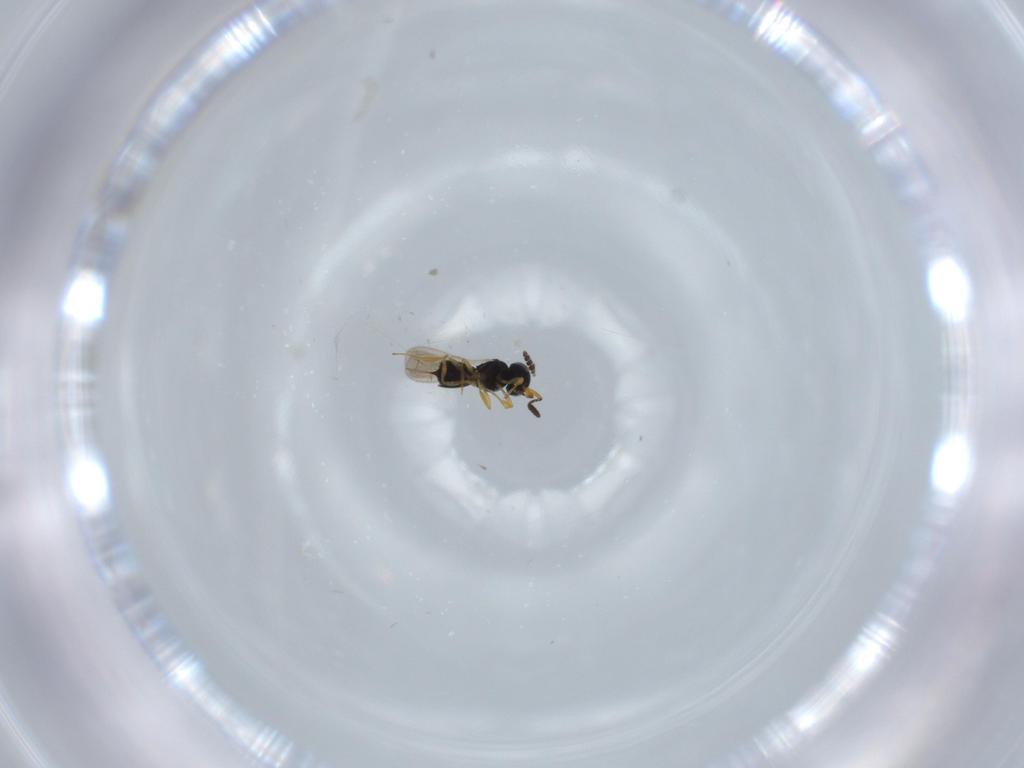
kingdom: Animalia
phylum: Arthropoda
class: Insecta
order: Hymenoptera
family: Scelionidae
